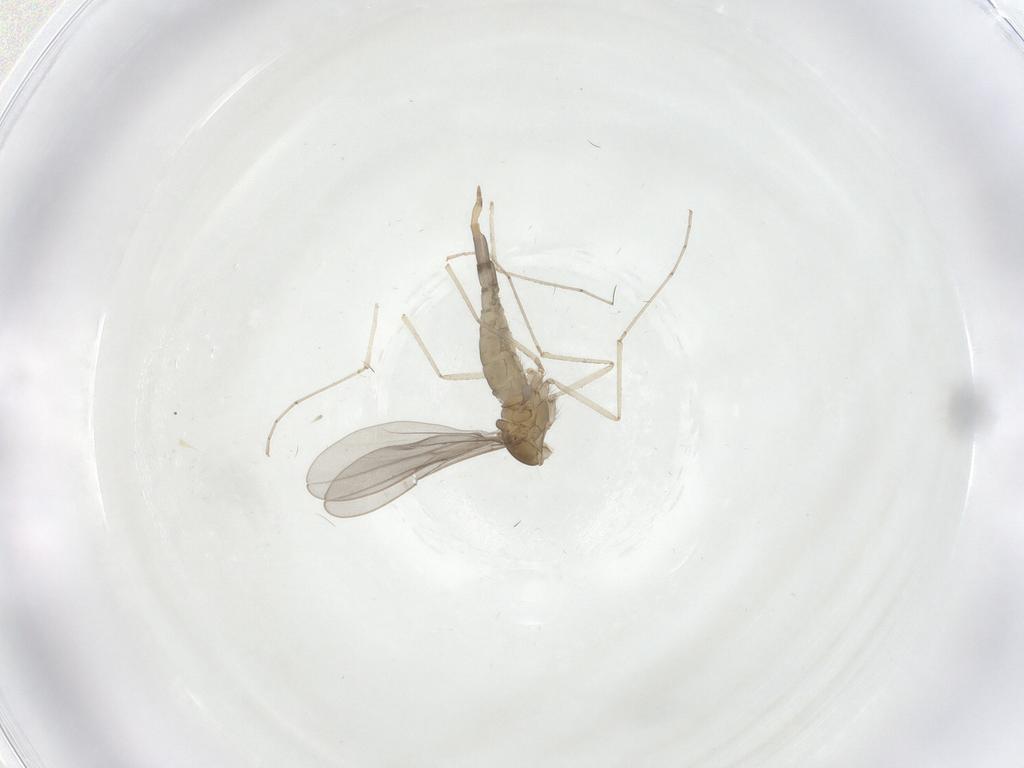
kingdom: Animalia
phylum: Arthropoda
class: Insecta
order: Diptera
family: Cecidomyiidae
